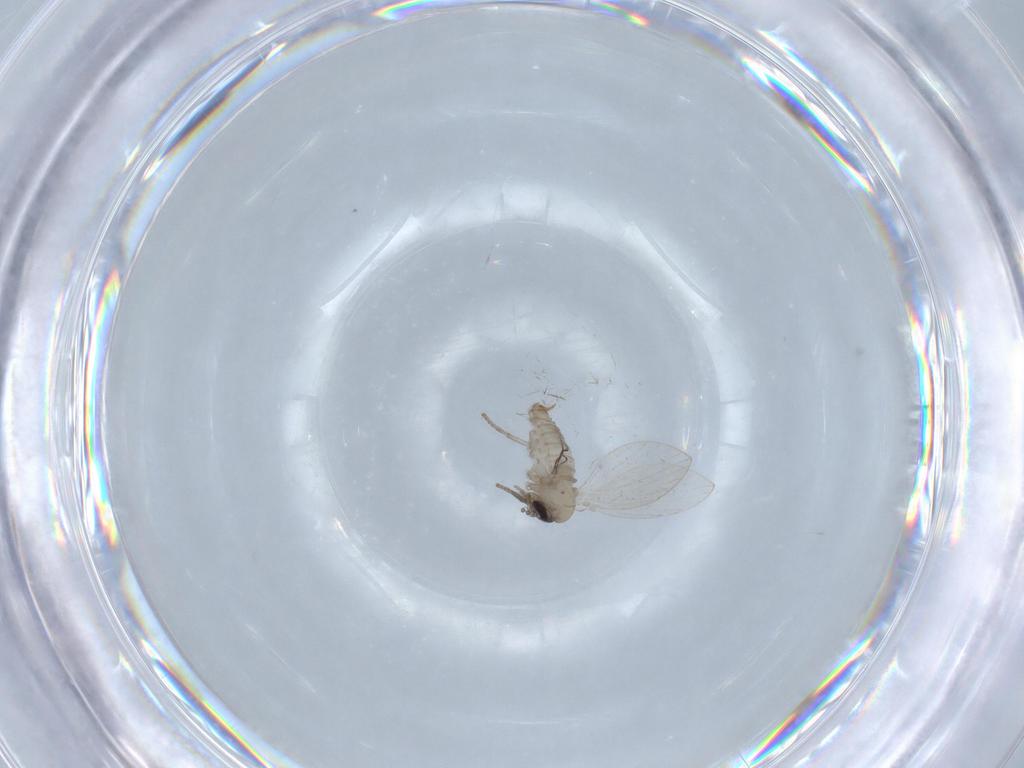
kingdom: Animalia
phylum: Arthropoda
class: Insecta
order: Diptera
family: Psychodidae
